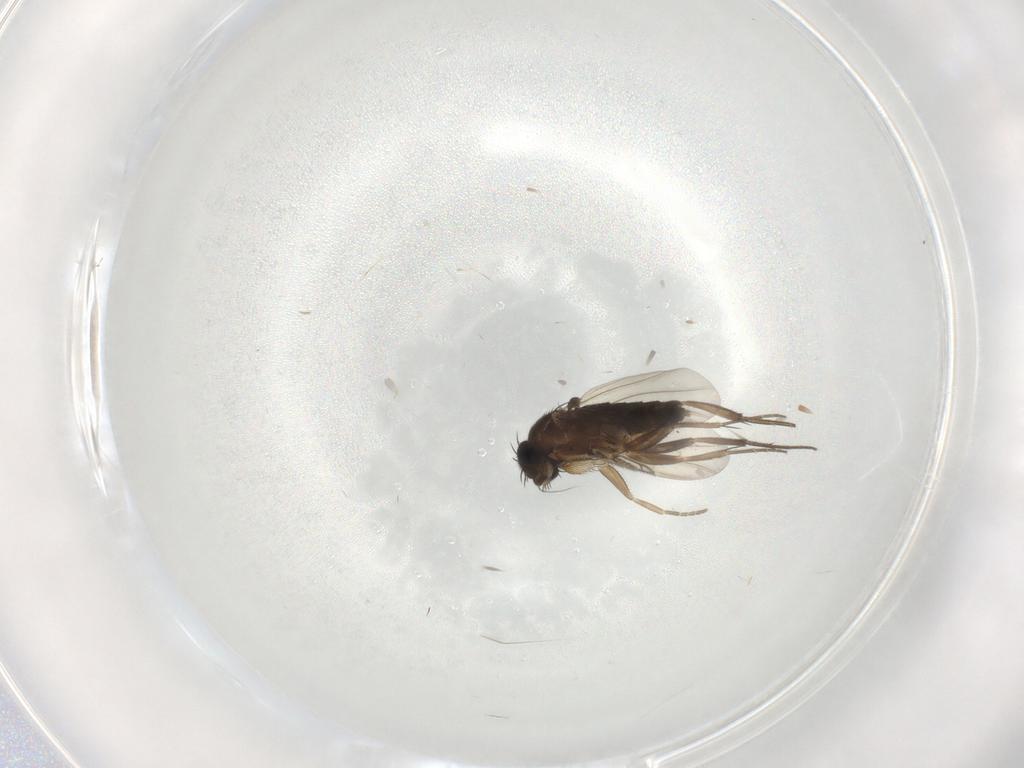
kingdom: Animalia
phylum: Arthropoda
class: Insecta
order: Diptera
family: Phoridae
